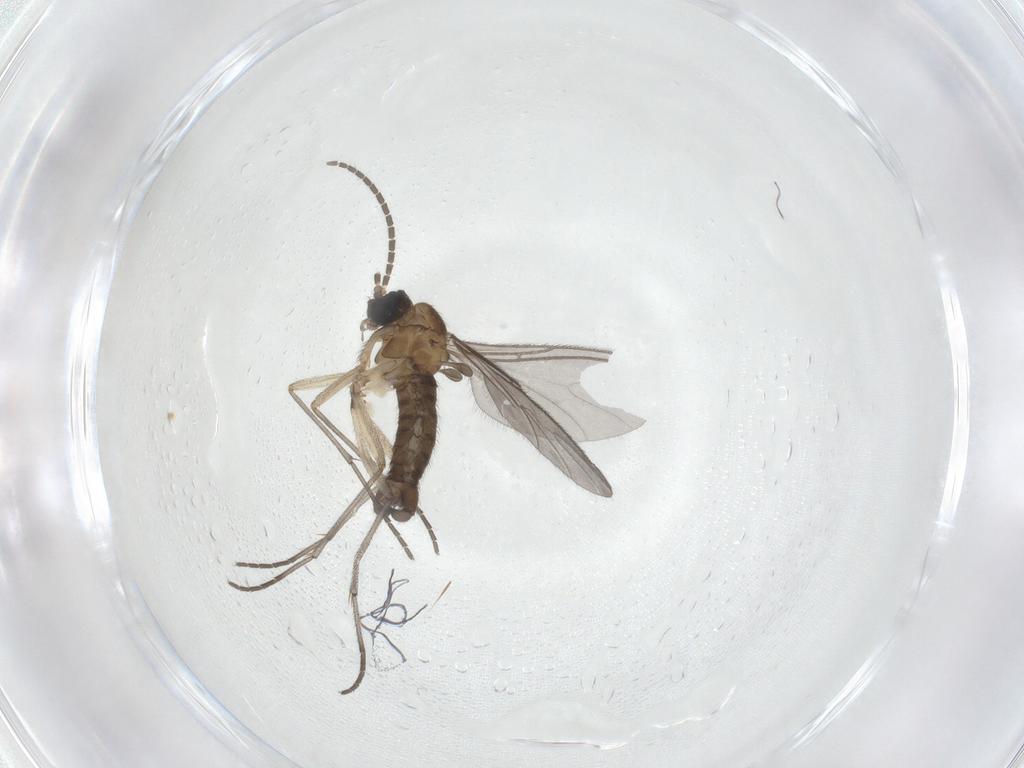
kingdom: Animalia
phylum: Arthropoda
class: Insecta
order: Diptera
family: Sciaridae
